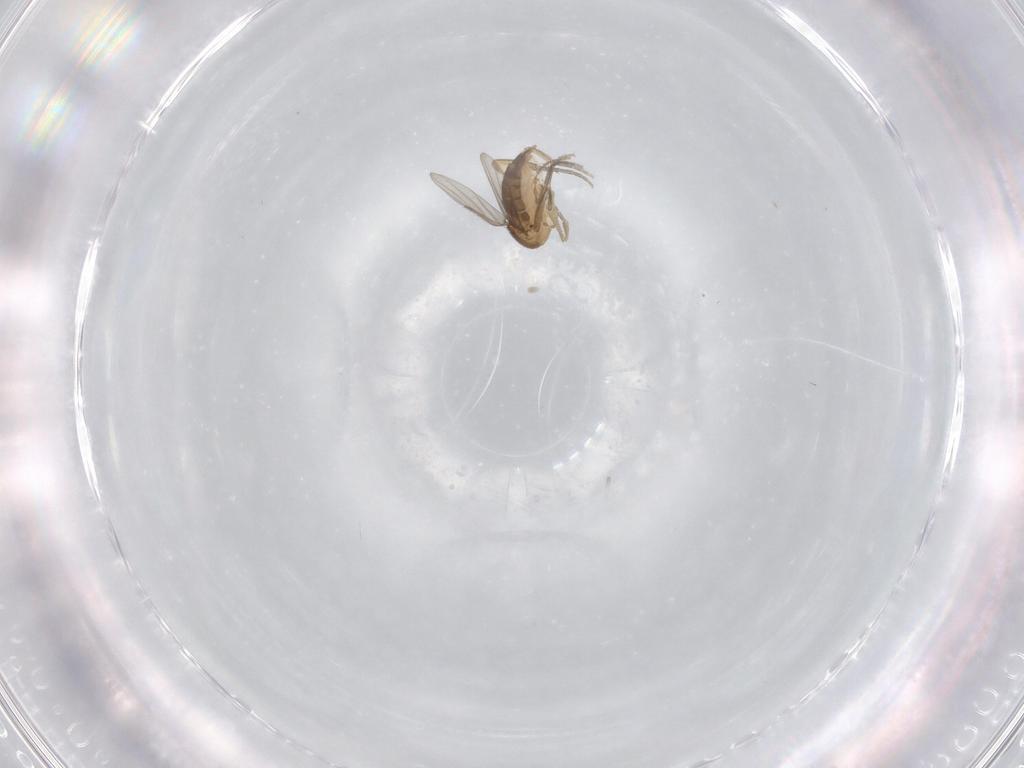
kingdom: Animalia
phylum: Arthropoda
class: Insecta
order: Diptera
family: Phoridae
